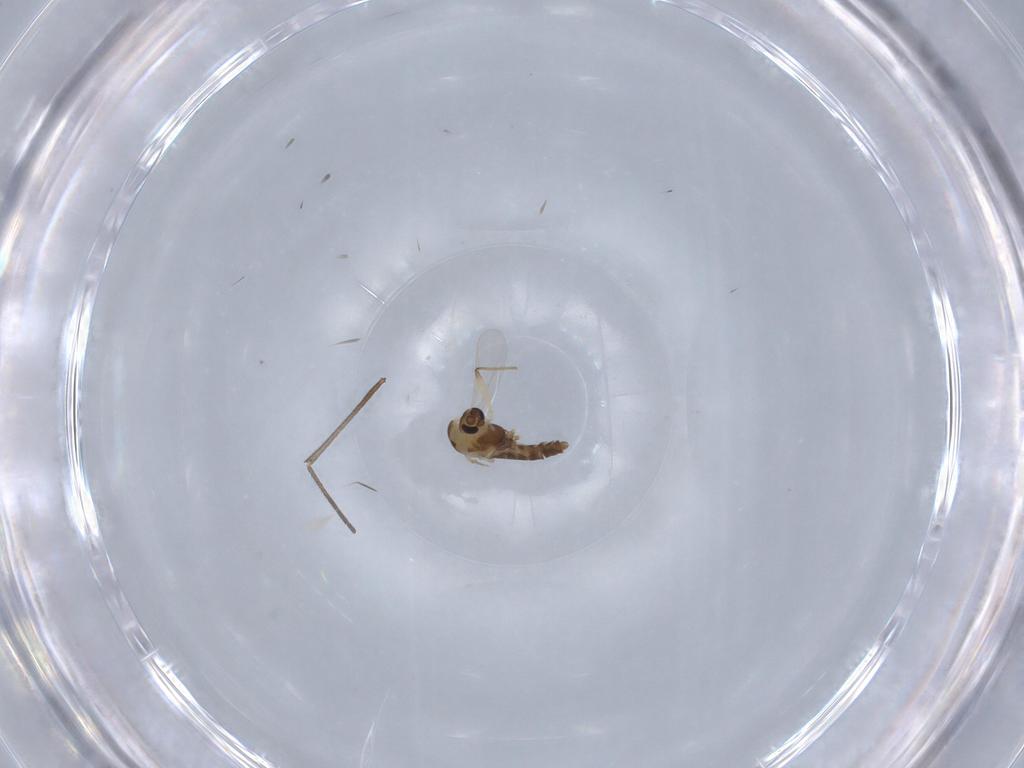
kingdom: Animalia
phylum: Arthropoda
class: Insecta
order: Diptera
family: Chironomidae
